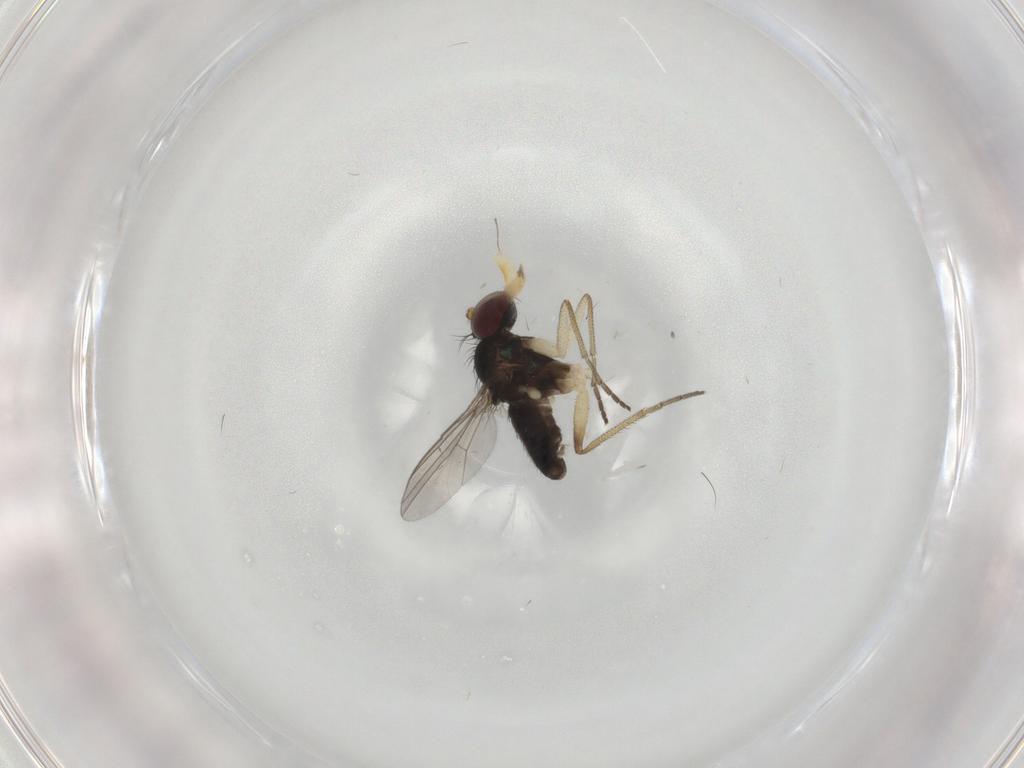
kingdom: Animalia
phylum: Arthropoda
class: Insecta
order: Diptera
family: Dolichopodidae
